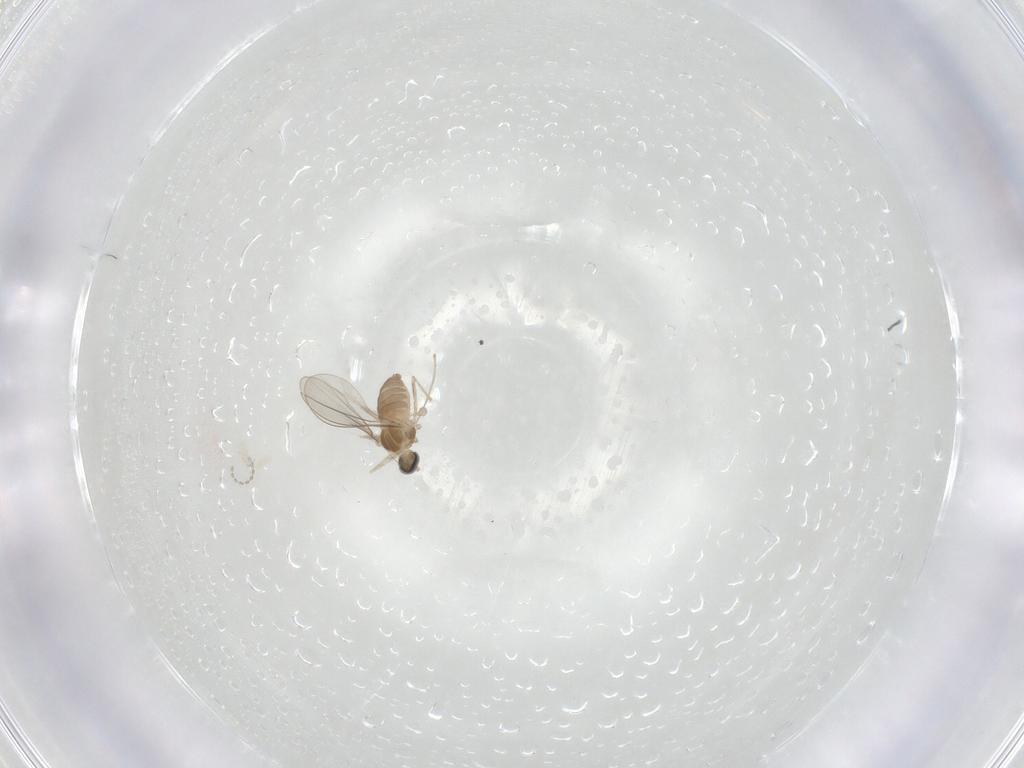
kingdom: Animalia
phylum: Arthropoda
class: Insecta
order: Diptera
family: Cecidomyiidae
